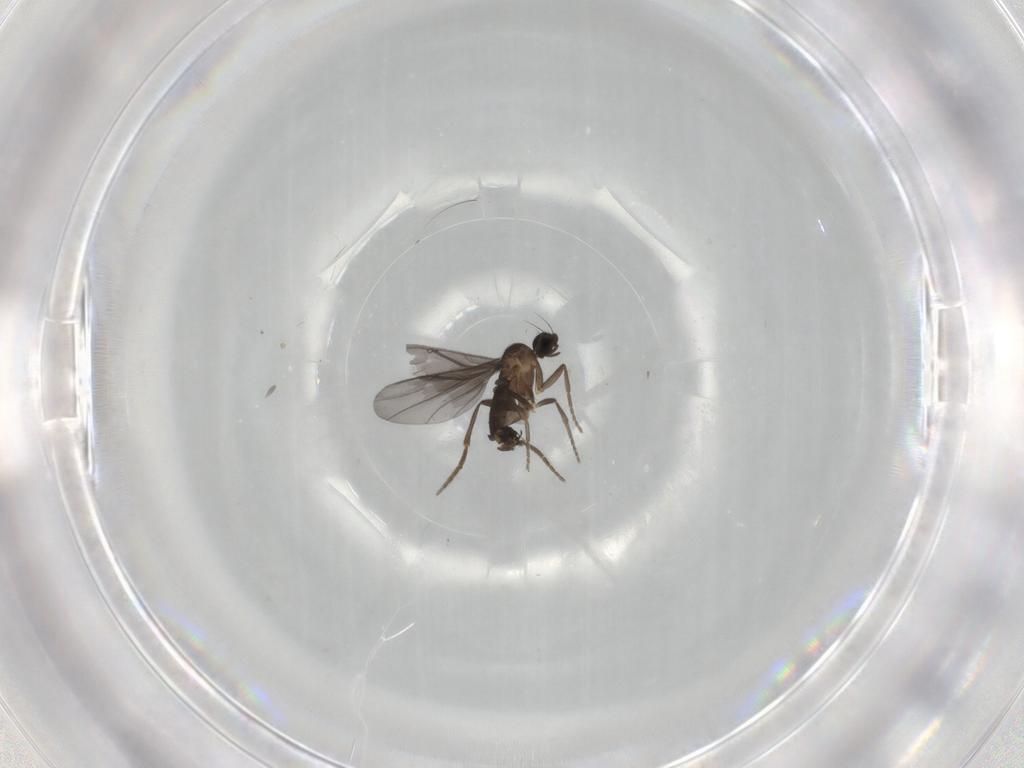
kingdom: Animalia
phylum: Arthropoda
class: Insecta
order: Diptera
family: Phoridae
